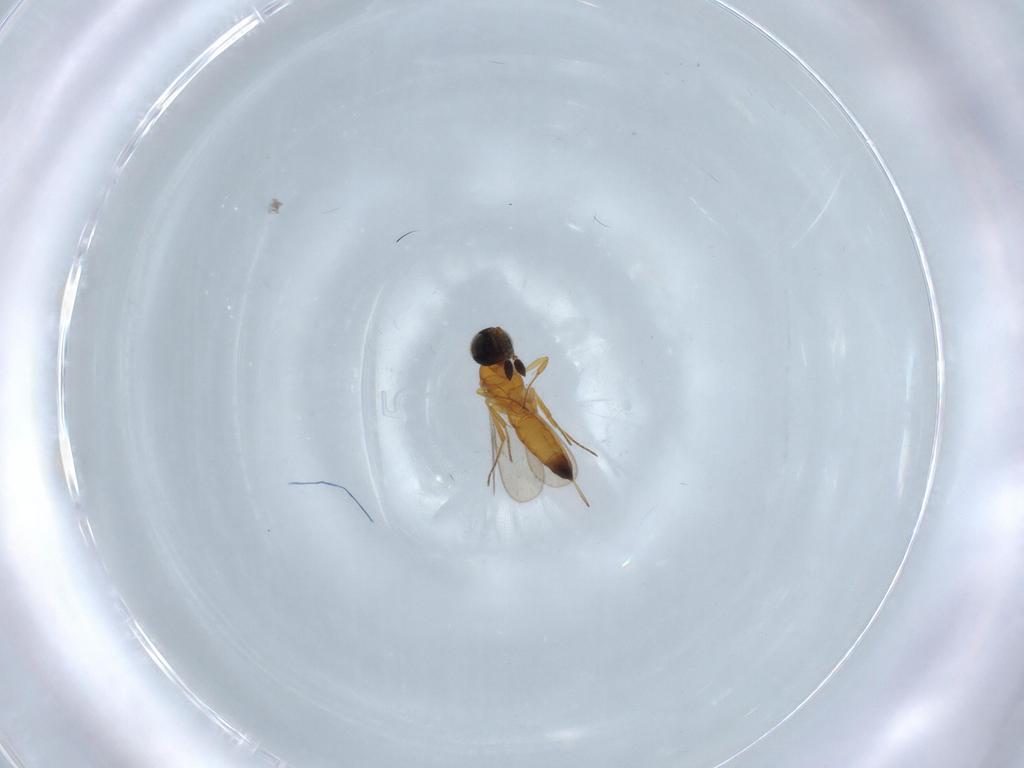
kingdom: Animalia
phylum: Arthropoda
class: Insecta
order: Hymenoptera
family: Scelionidae
